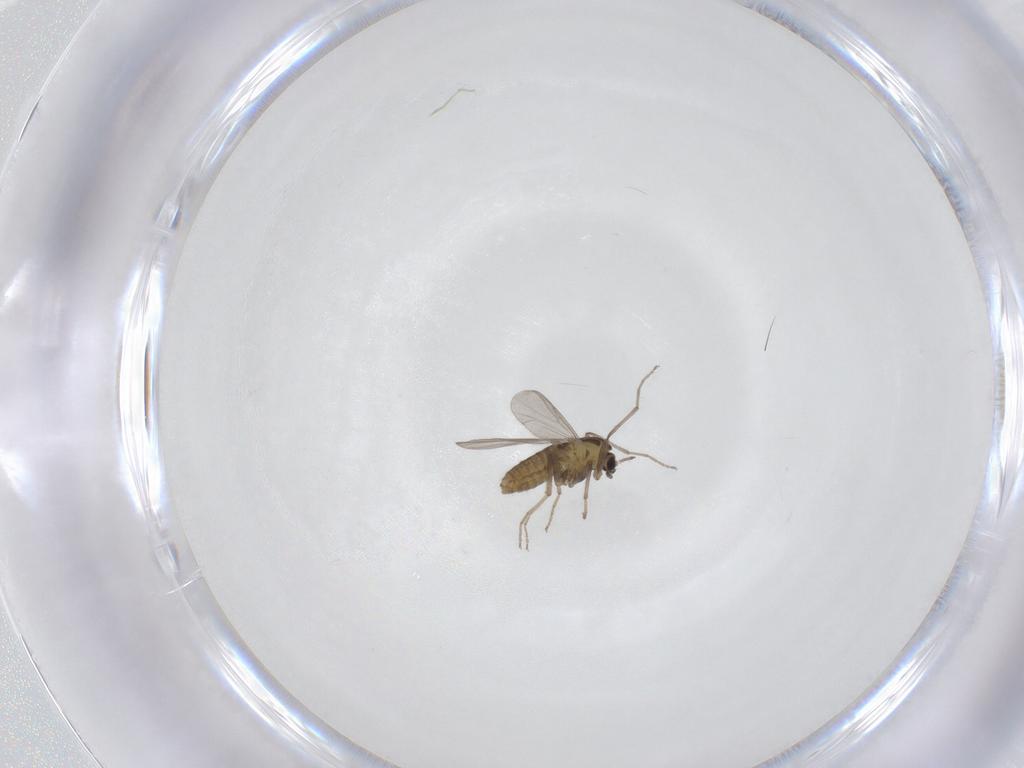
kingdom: Animalia
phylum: Arthropoda
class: Insecta
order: Diptera
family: Chironomidae
